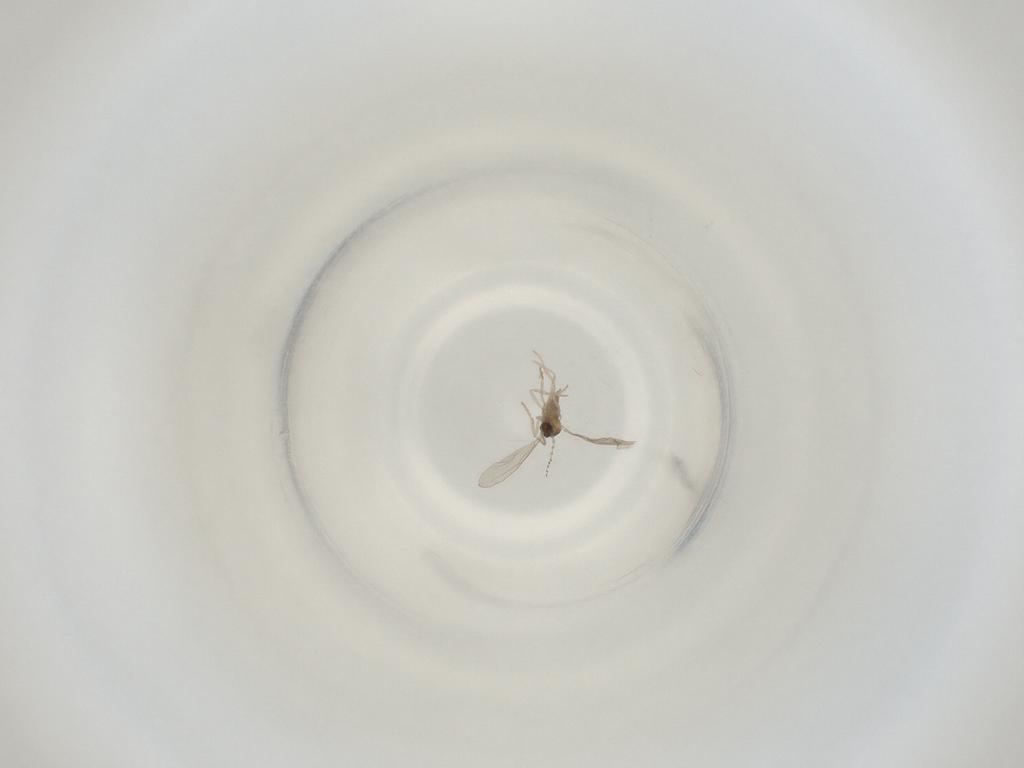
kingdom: Animalia
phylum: Arthropoda
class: Insecta
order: Diptera
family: Cecidomyiidae
